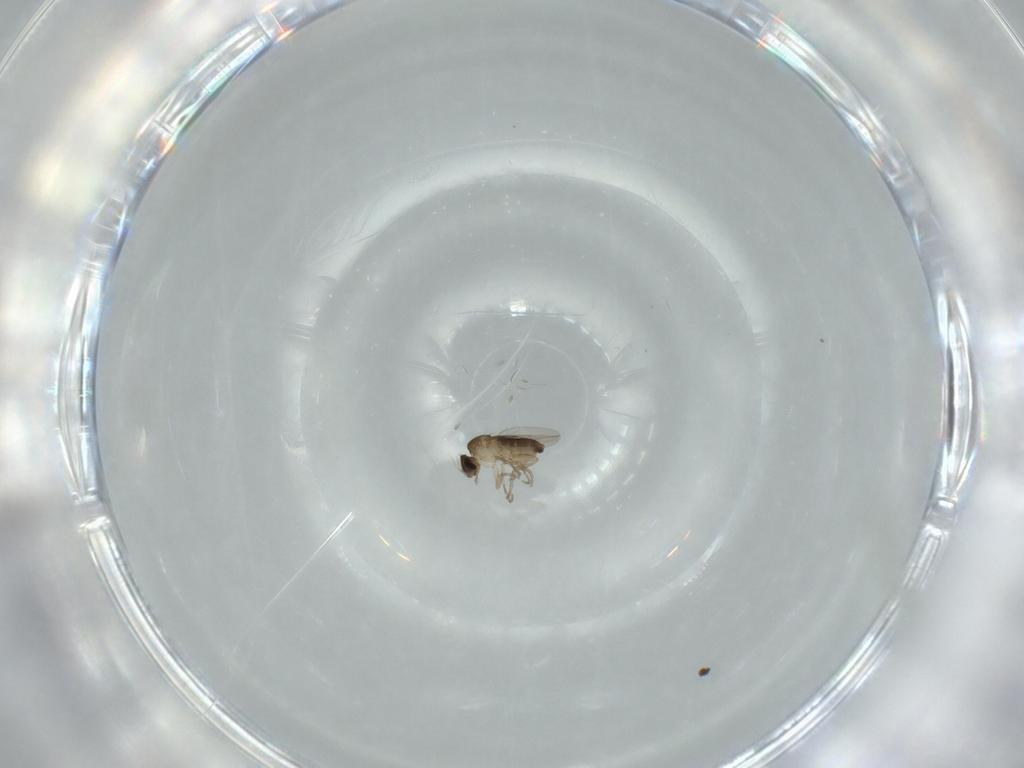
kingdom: Animalia
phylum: Arthropoda
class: Insecta
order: Diptera
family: Phoridae
